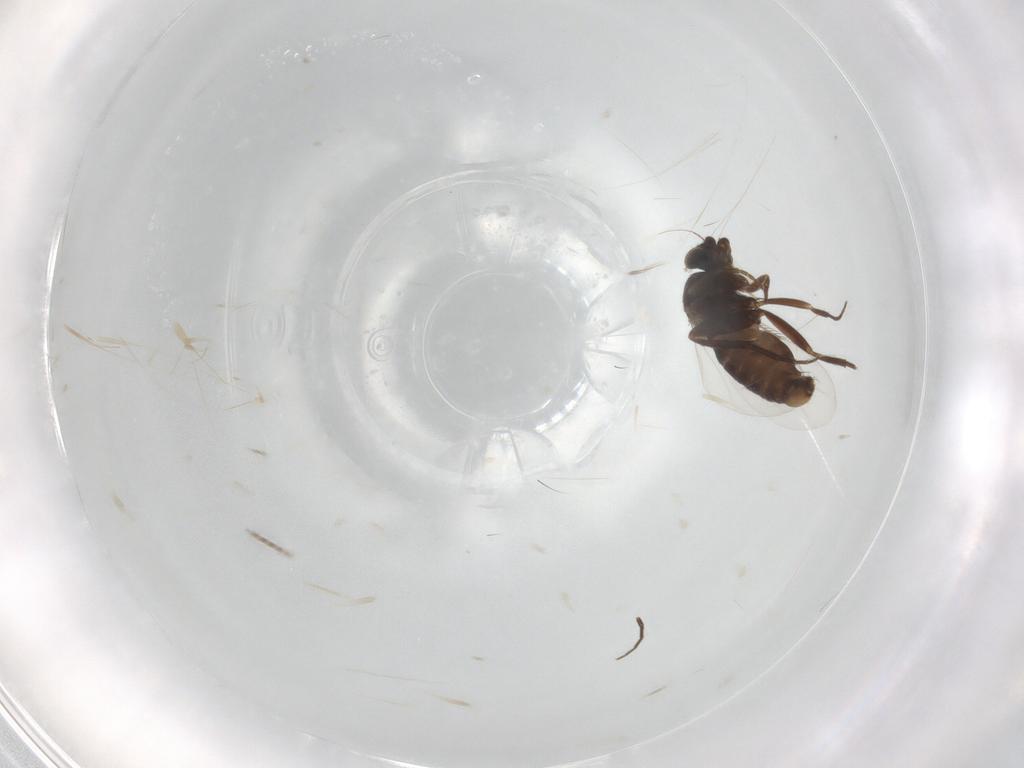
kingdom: Animalia
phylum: Arthropoda
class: Insecta
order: Diptera
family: Phoridae
